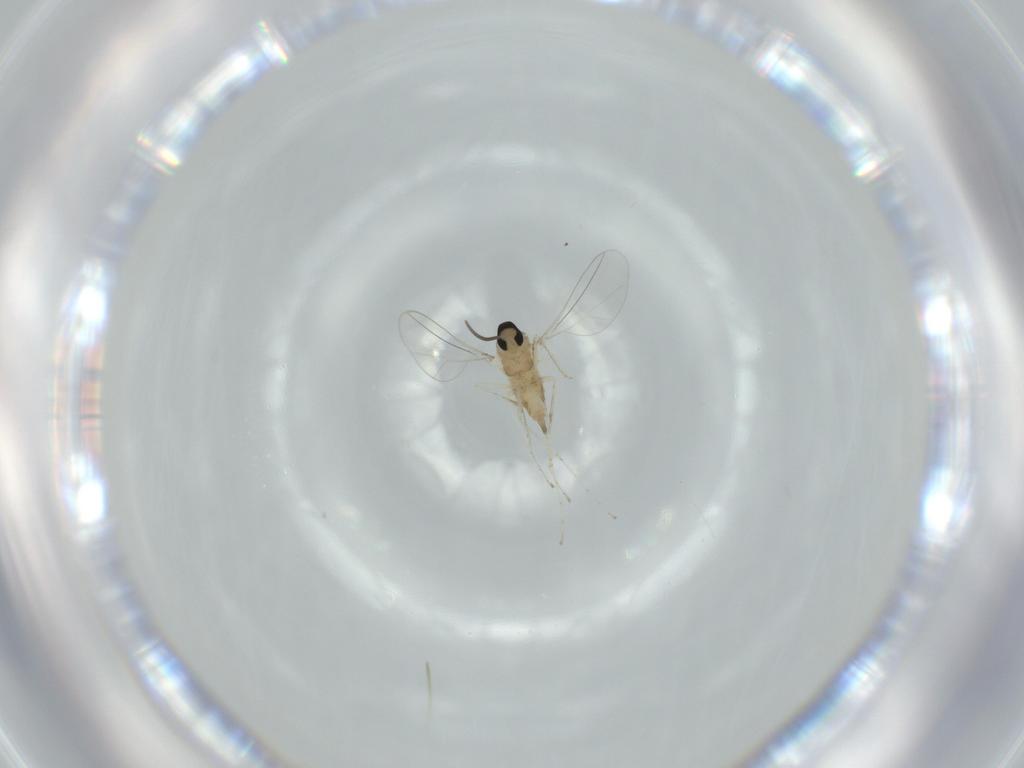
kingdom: Animalia
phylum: Arthropoda
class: Insecta
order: Diptera
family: Cecidomyiidae
